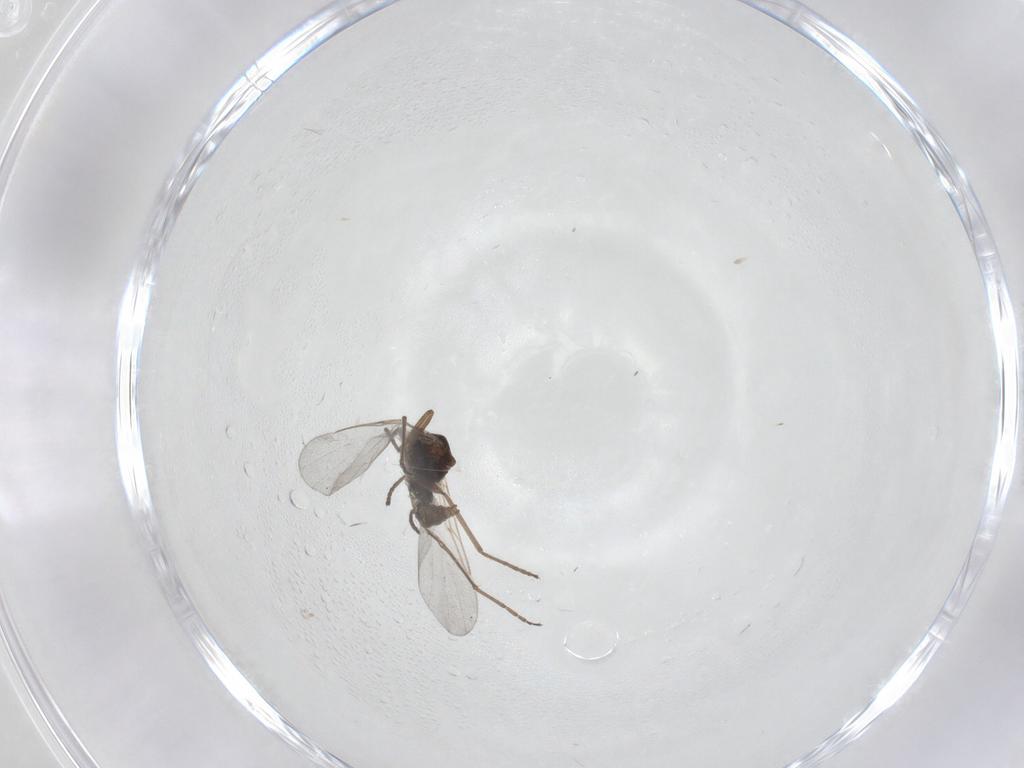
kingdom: Animalia
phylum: Arthropoda
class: Insecta
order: Diptera
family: Cecidomyiidae
